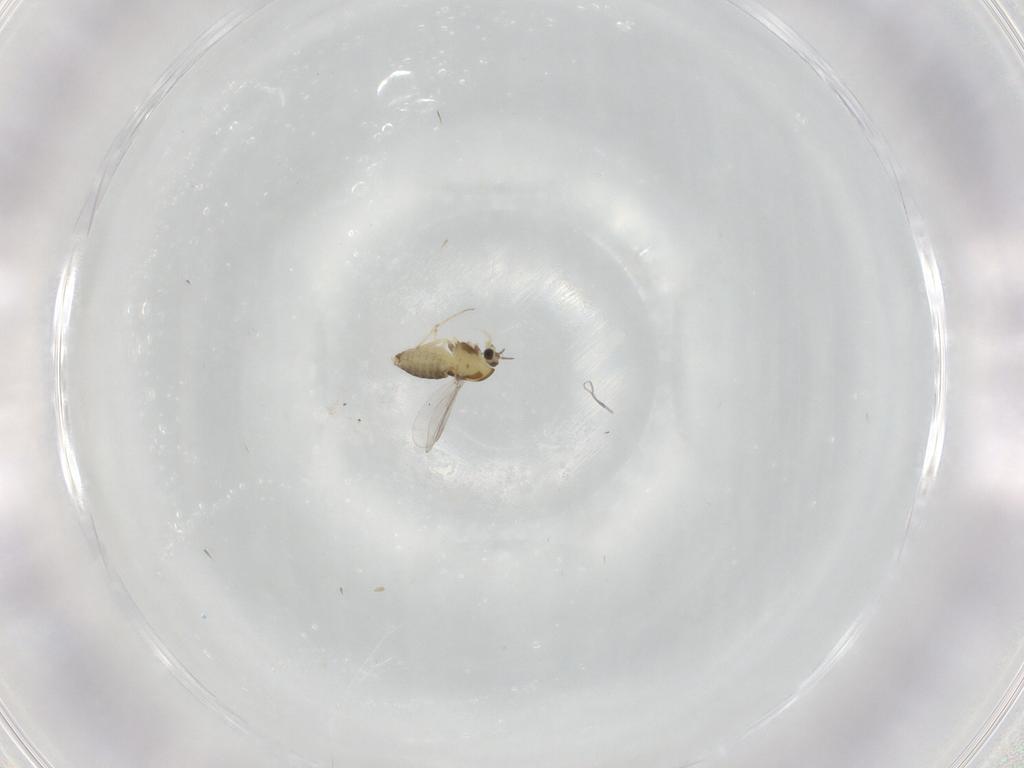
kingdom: Animalia
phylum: Arthropoda
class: Insecta
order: Diptera
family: Chironomidae
